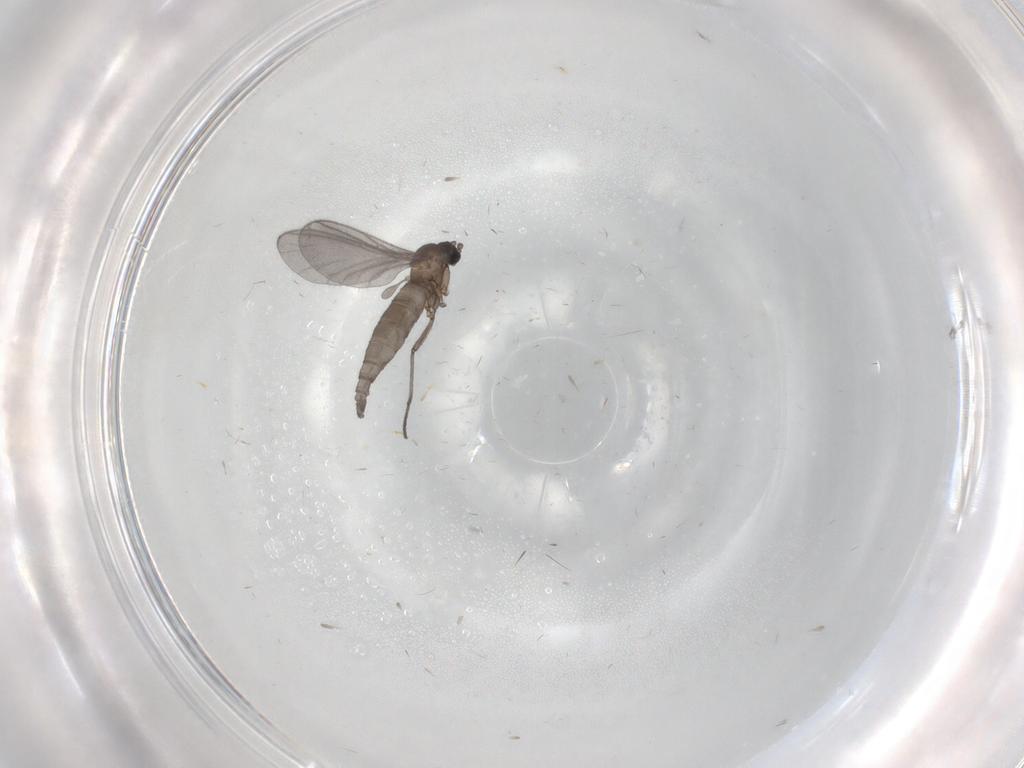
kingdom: Animalia
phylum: Arthropoda
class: Insecta
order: Diptera
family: Sciaridae
